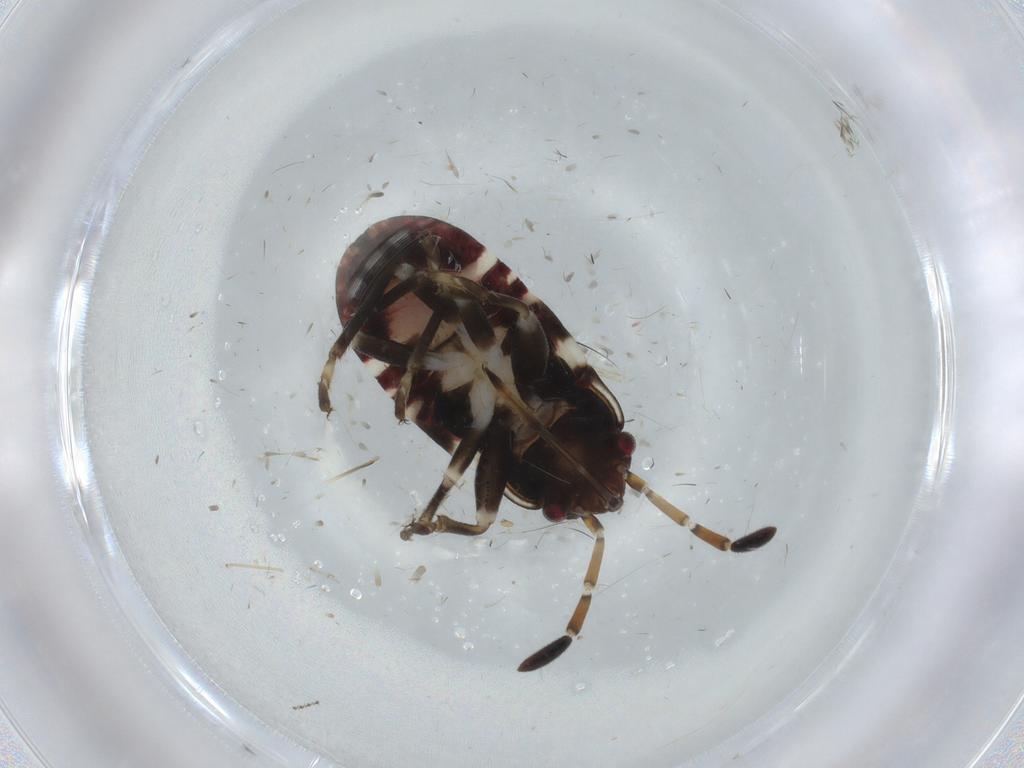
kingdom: Animalia
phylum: Arthropoda
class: Insecta
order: Hemiptera
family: Rhyparochromidae
